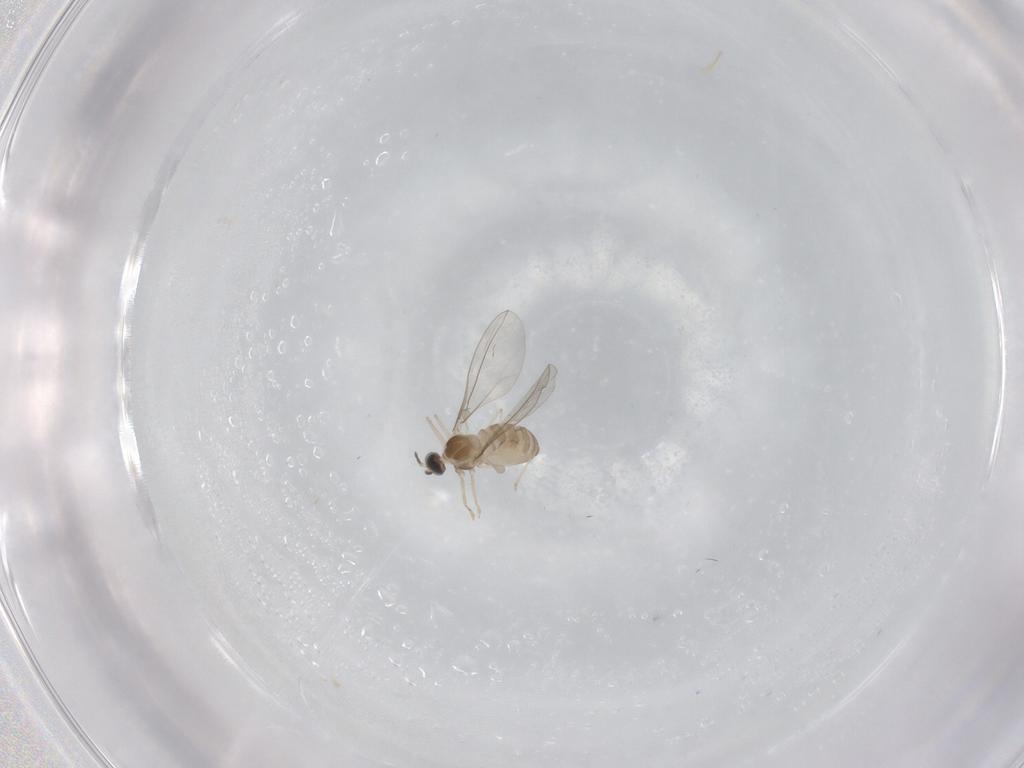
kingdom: Animalia
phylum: Arthropoda
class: Insecta
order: Diptera
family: Cecidomyiidae
